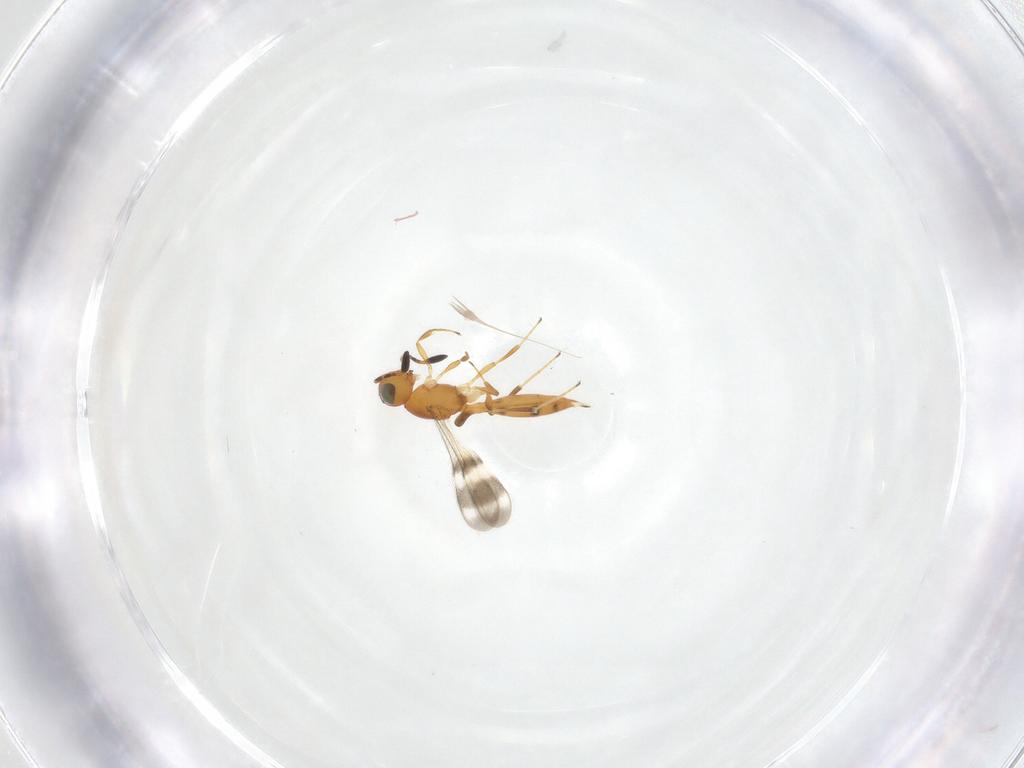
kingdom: Animalia
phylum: Arthropoda
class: Insecta
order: Hymenoptera
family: Scelionidae
